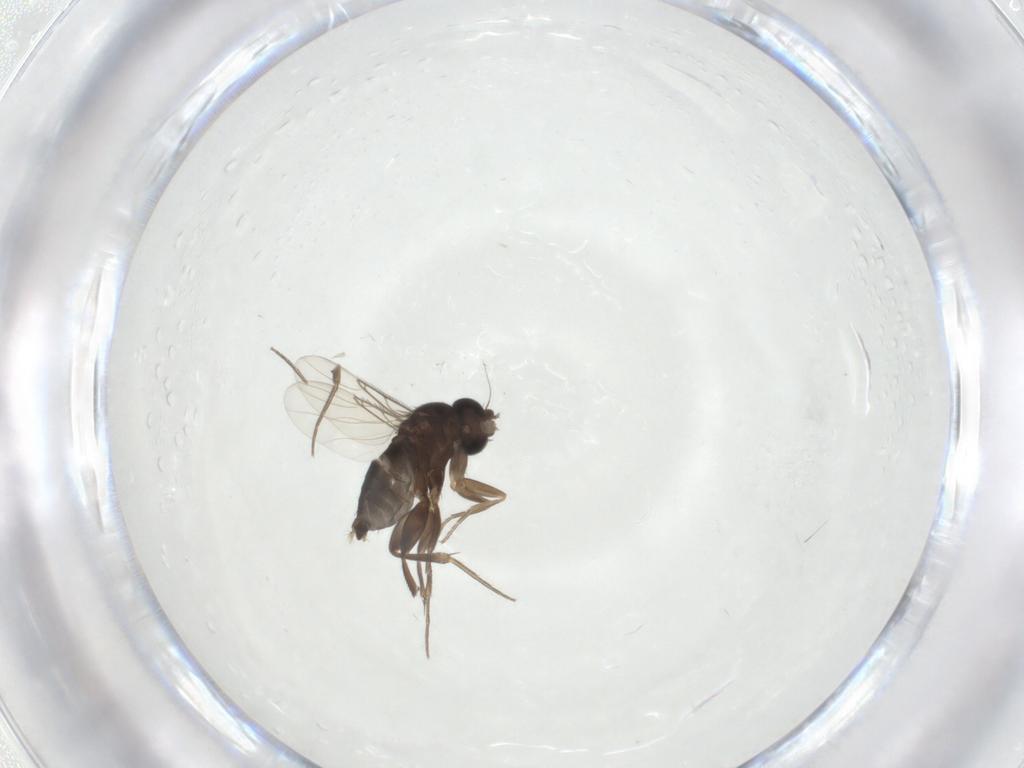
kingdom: Animalia
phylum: Arthropoda
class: Insecta
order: Diptera
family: Phoridae
